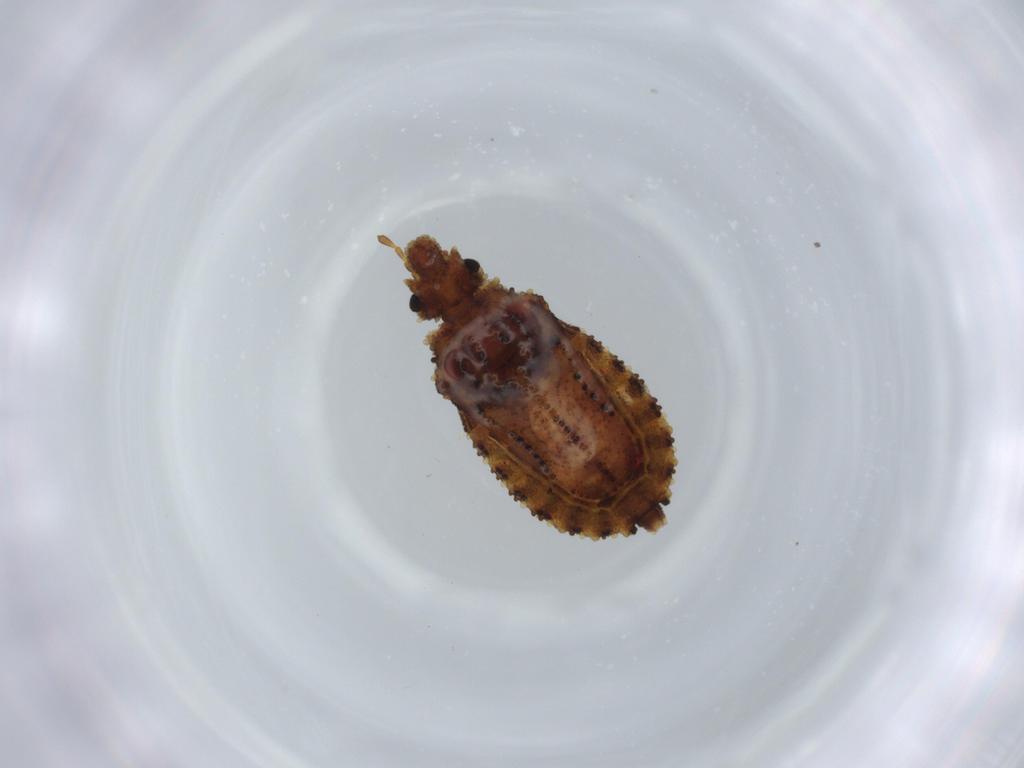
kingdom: Animalia
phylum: Arthropoda
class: Insecta
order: Hemiptera
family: Aradidae
